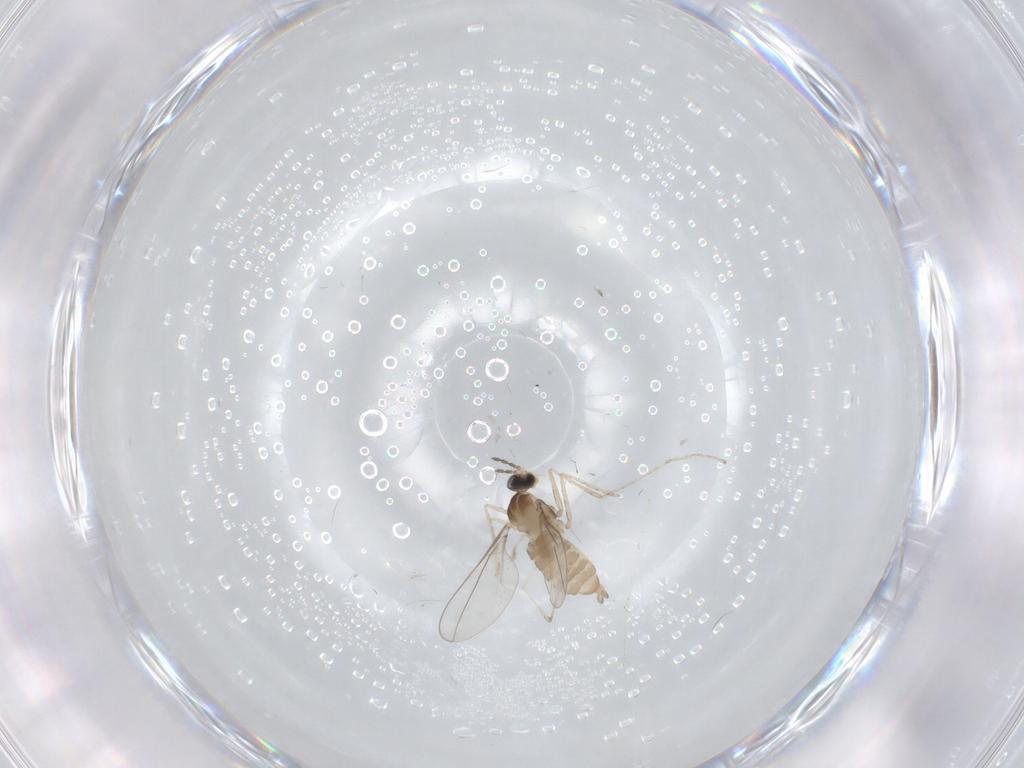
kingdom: Animalia
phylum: Arthropoda
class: Insecta
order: Diptera
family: Cecidomyiidae
